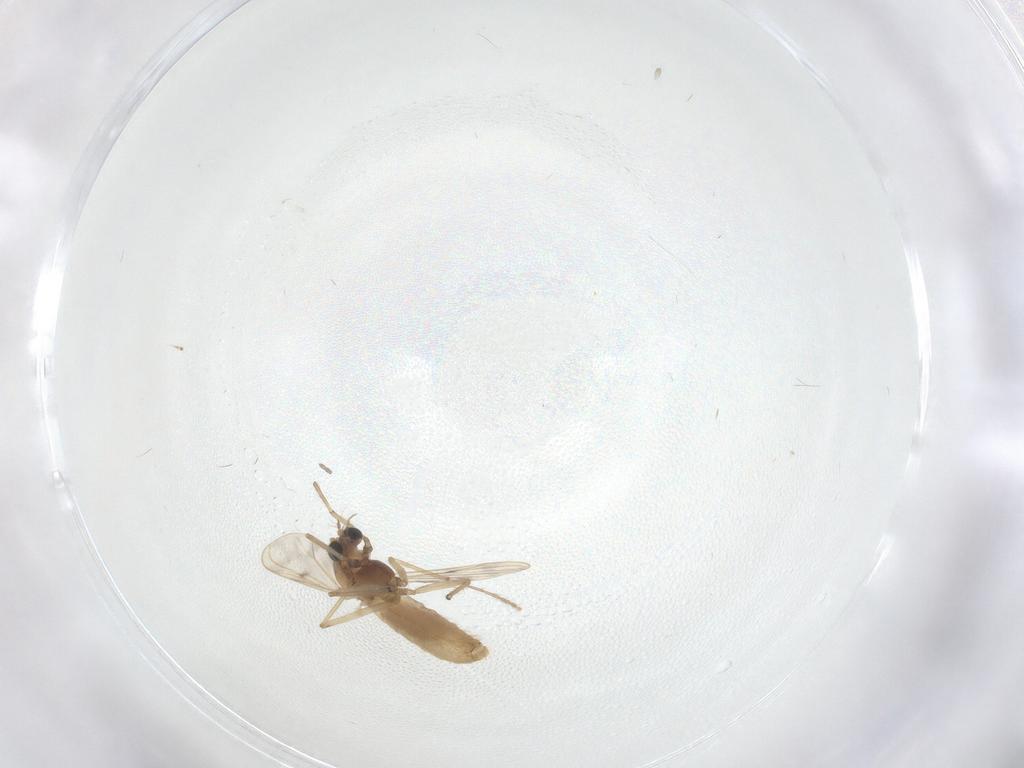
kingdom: Animalia
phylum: Arthropoda
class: Insecta
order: Diptera
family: Chironomidae
